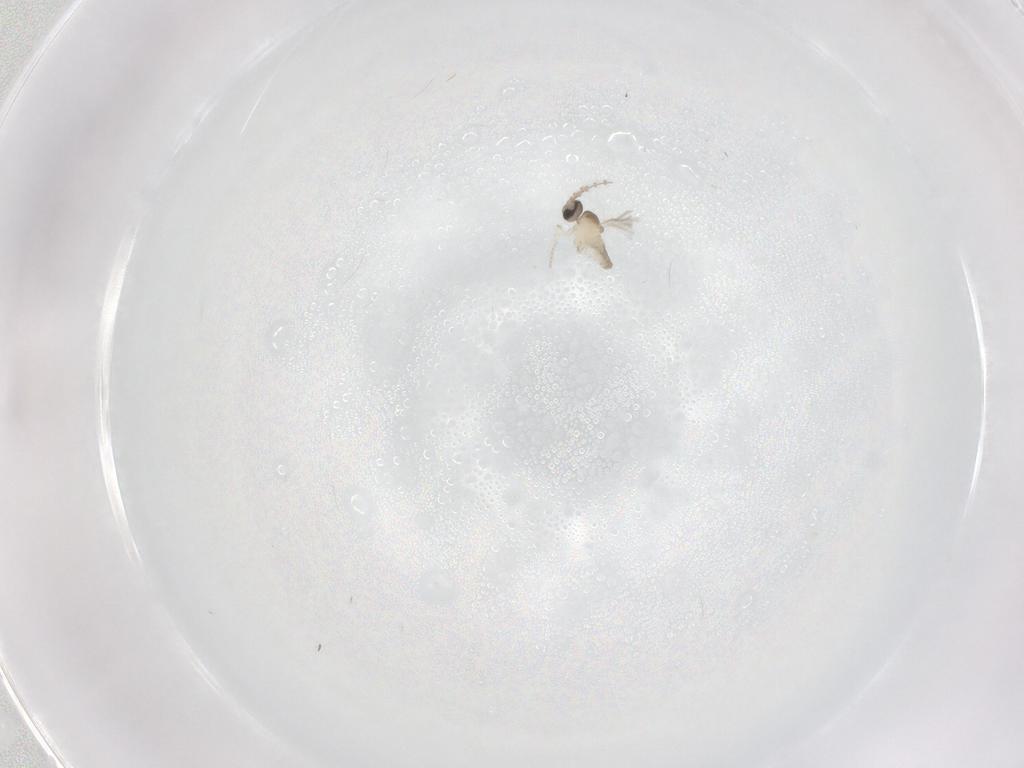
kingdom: Animalia
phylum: Arthropoda
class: Insecta
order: Diptera
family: Cecidomyiidae
